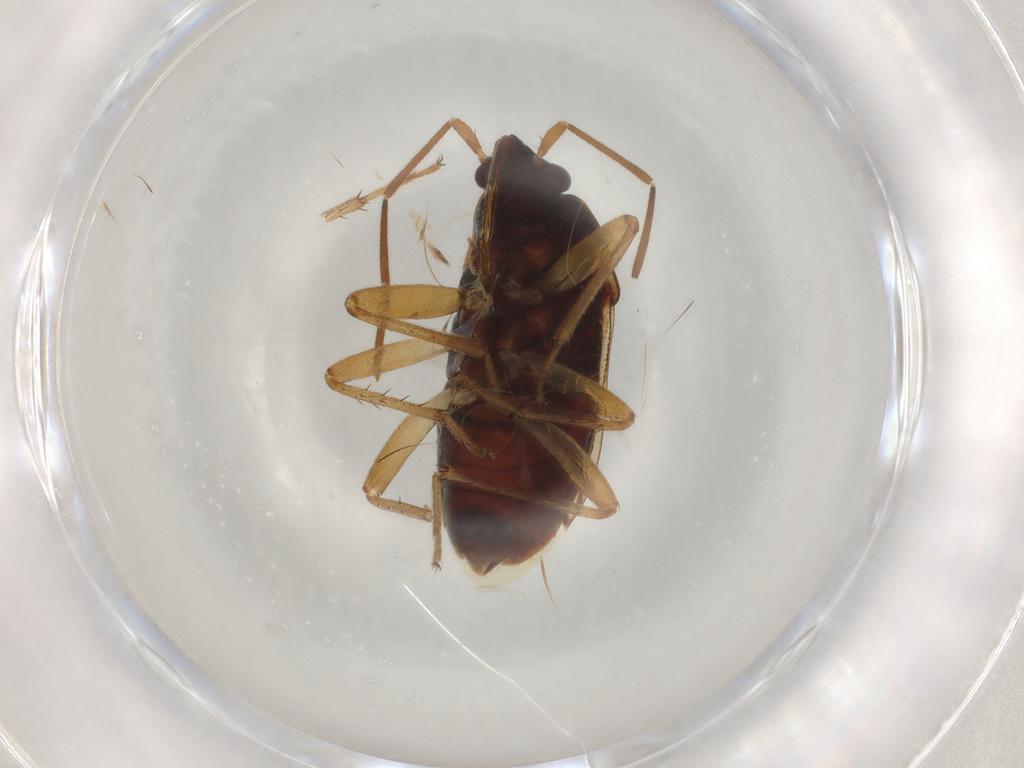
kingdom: Animalia
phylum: Arthropoda
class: Insecta
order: Hemiptera
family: Rhyparochromidae
